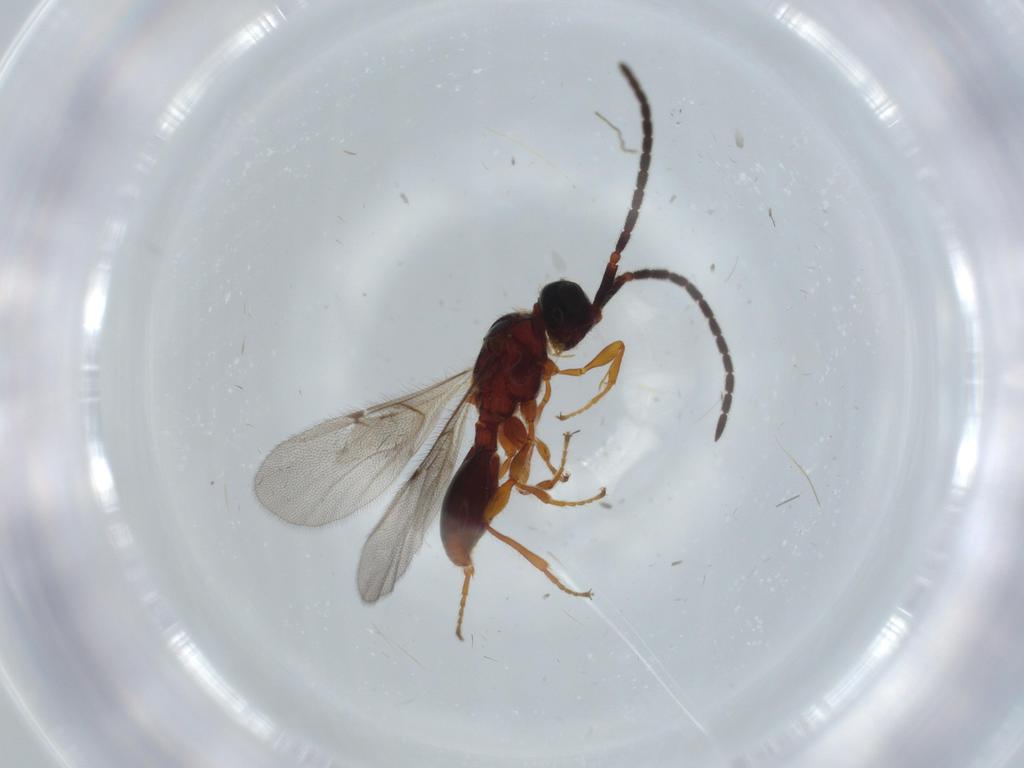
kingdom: Animalia
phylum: Arthropoda
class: Insecta
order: Hymenoptera
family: Diapriidae
